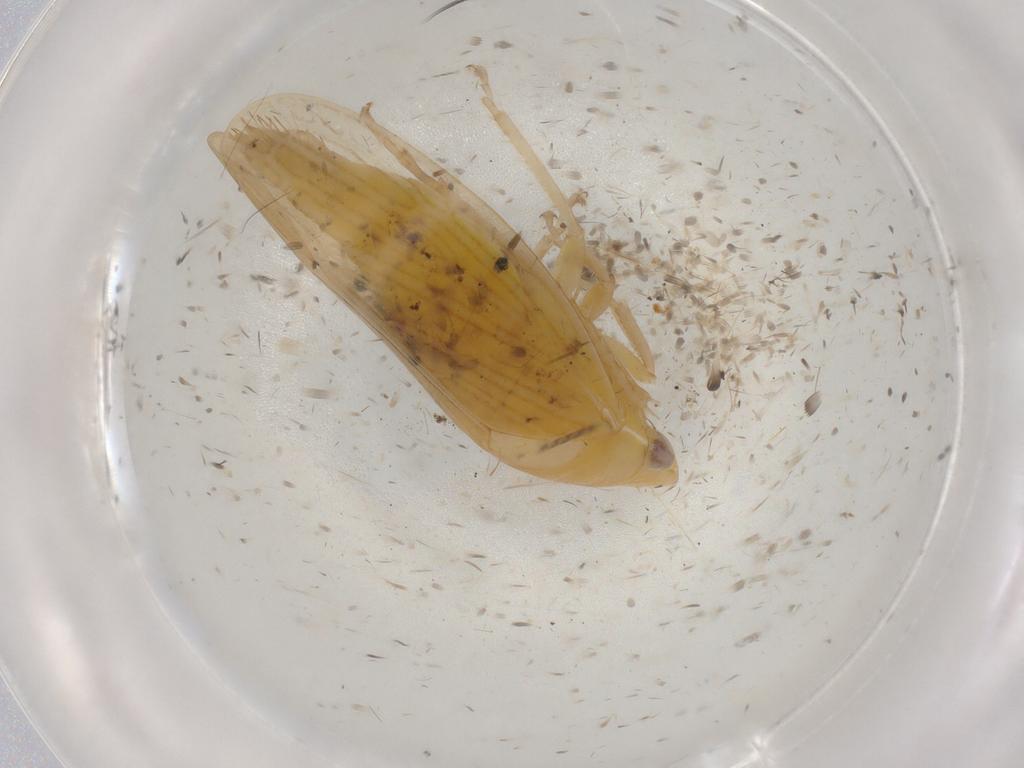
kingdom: Animalia
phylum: Arthropoda
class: Insecta
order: Hemiptera
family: Cicadellidae
